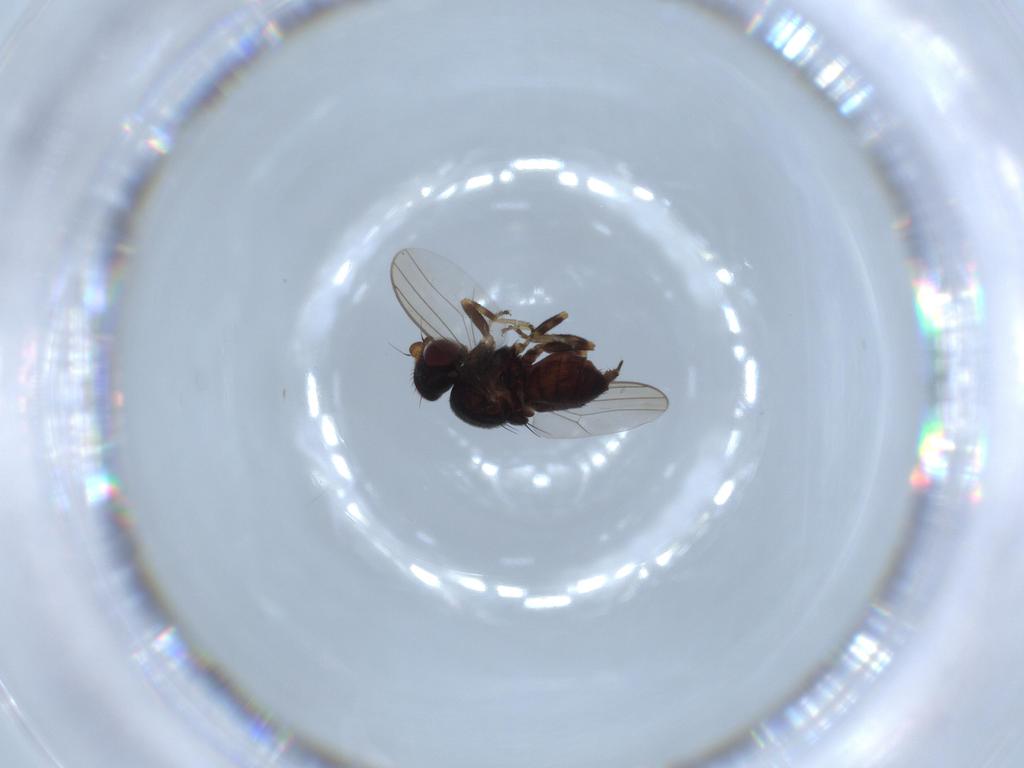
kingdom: Animalia
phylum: Arthropoda
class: Insecta
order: Diptera
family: Chloropidae
